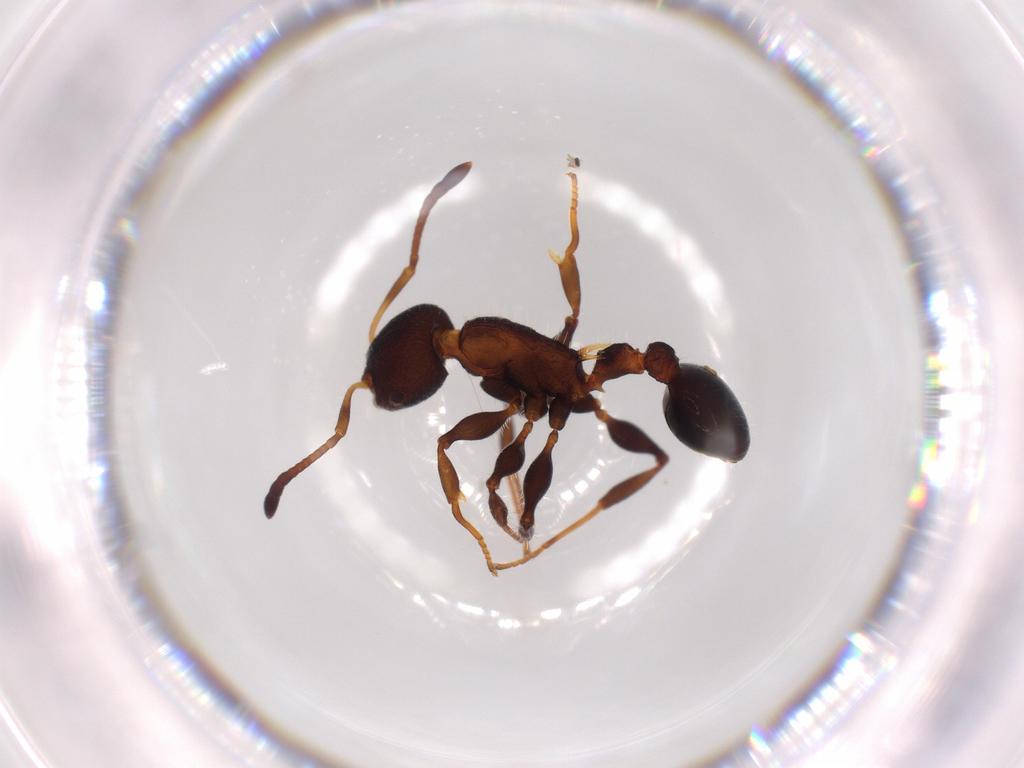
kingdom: Animalia
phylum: Arthropoda
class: Insecta
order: Hymenoptera
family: Formicidae
